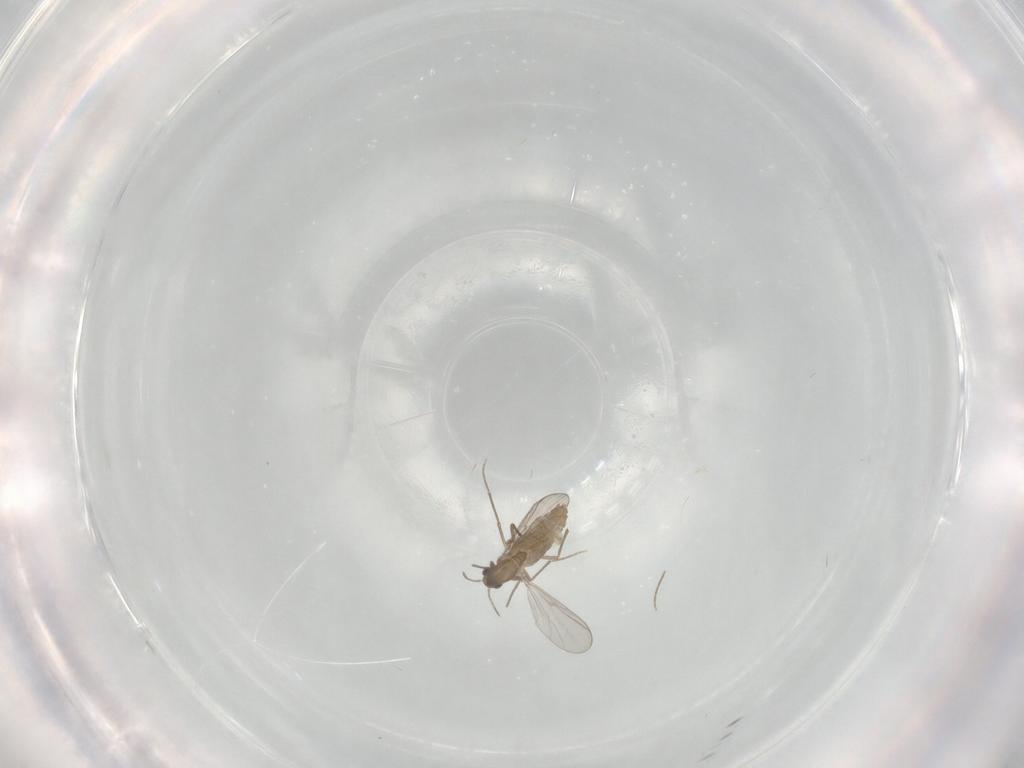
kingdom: Animalia
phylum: Arthropoda
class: Insecta
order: Diptera
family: Chironomidae
